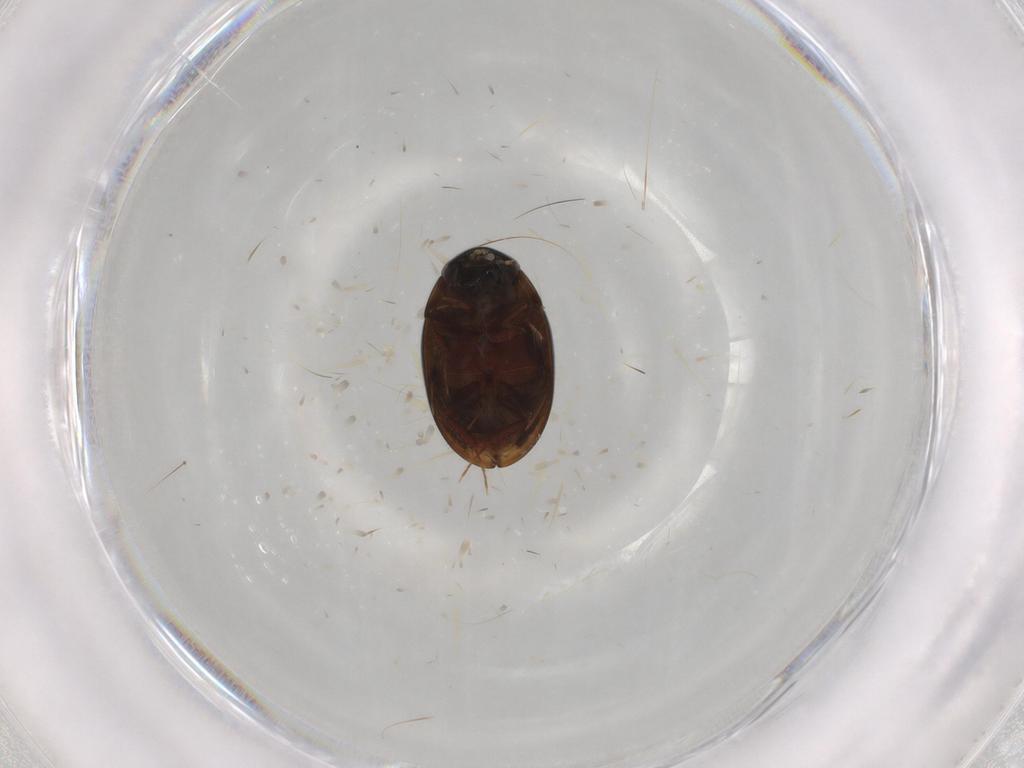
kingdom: Animalia
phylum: Arthropoda
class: Insecta
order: Coleoptera
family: Hydrophilidae
